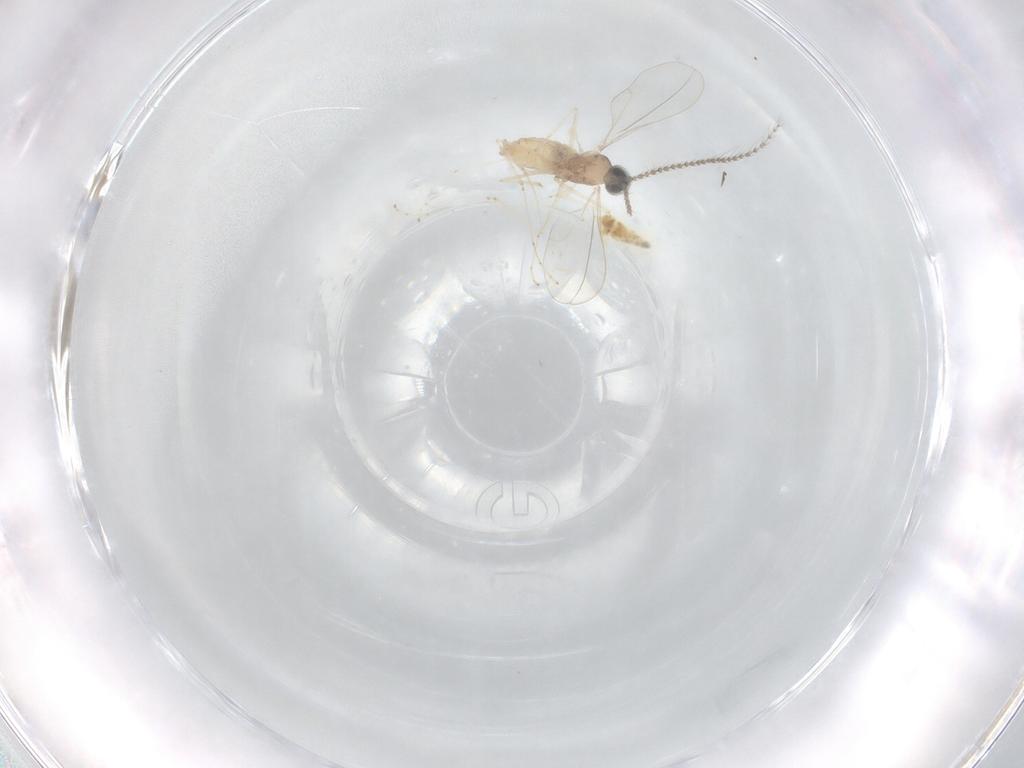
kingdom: Animalia
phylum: Arthropoda
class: Insecta
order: Diptera
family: Cecidomyiidae
